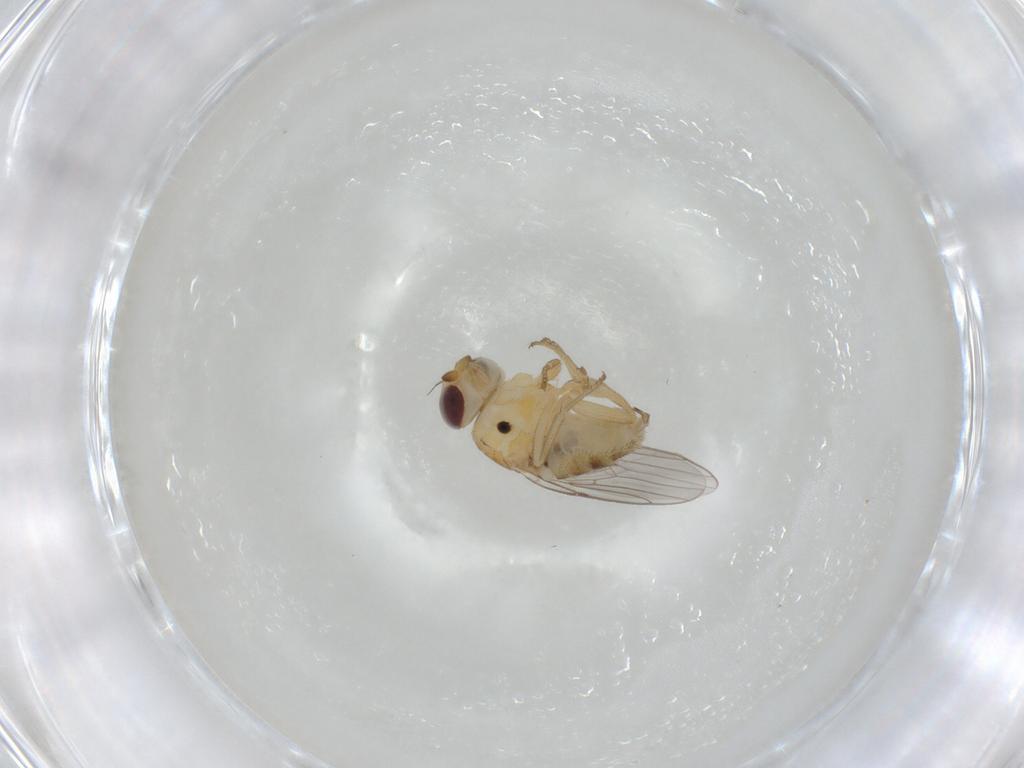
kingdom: Animalia
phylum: Arthropoda
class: Insecta
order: Diptera
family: Chloropidae
